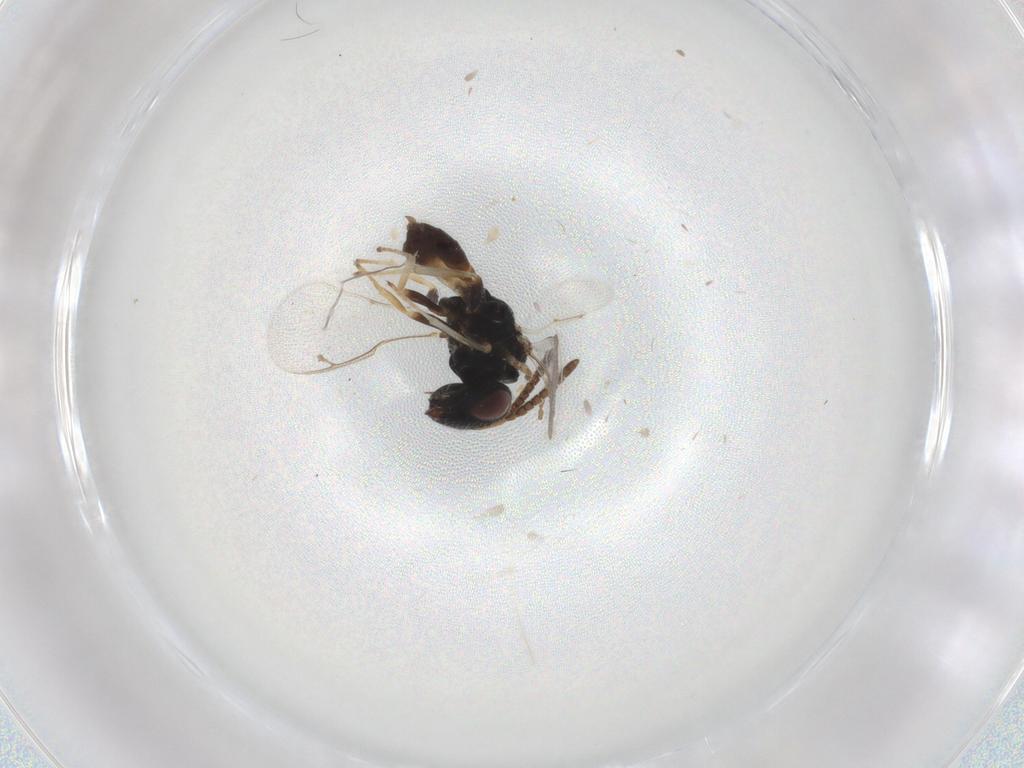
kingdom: Animalia
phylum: Arthropoda
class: Insecta
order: Hymenoptera
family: Pteromalidae
